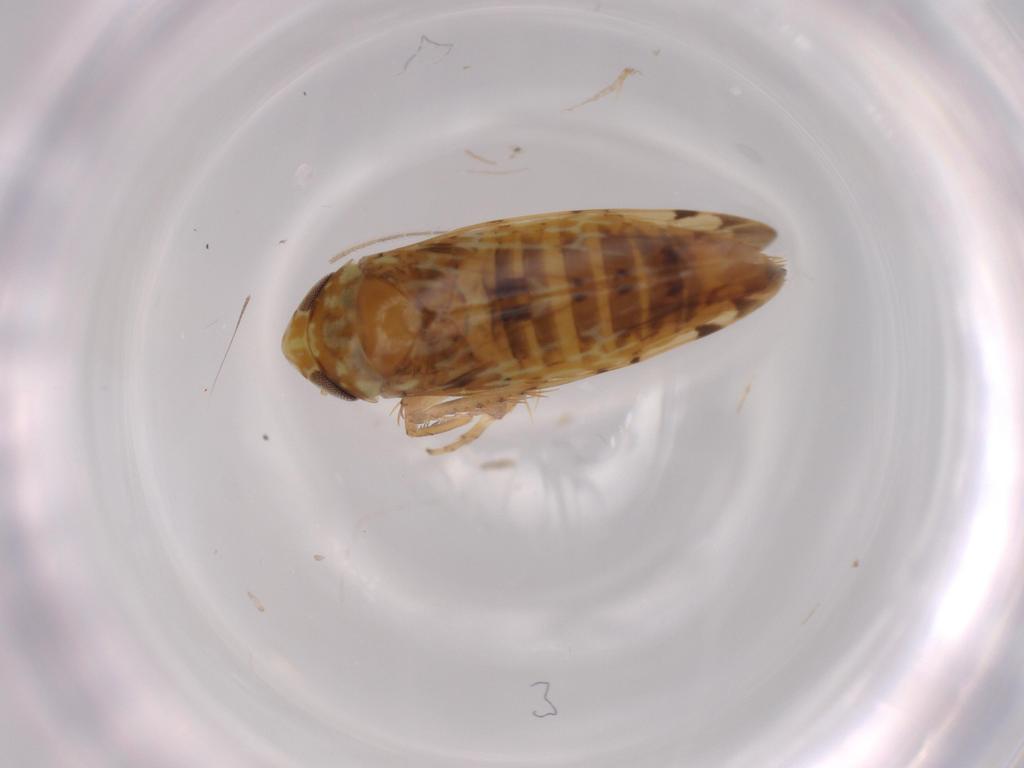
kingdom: Animalia
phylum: Arthropoda
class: Insecta
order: Hemiptera
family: Cicadellidae
